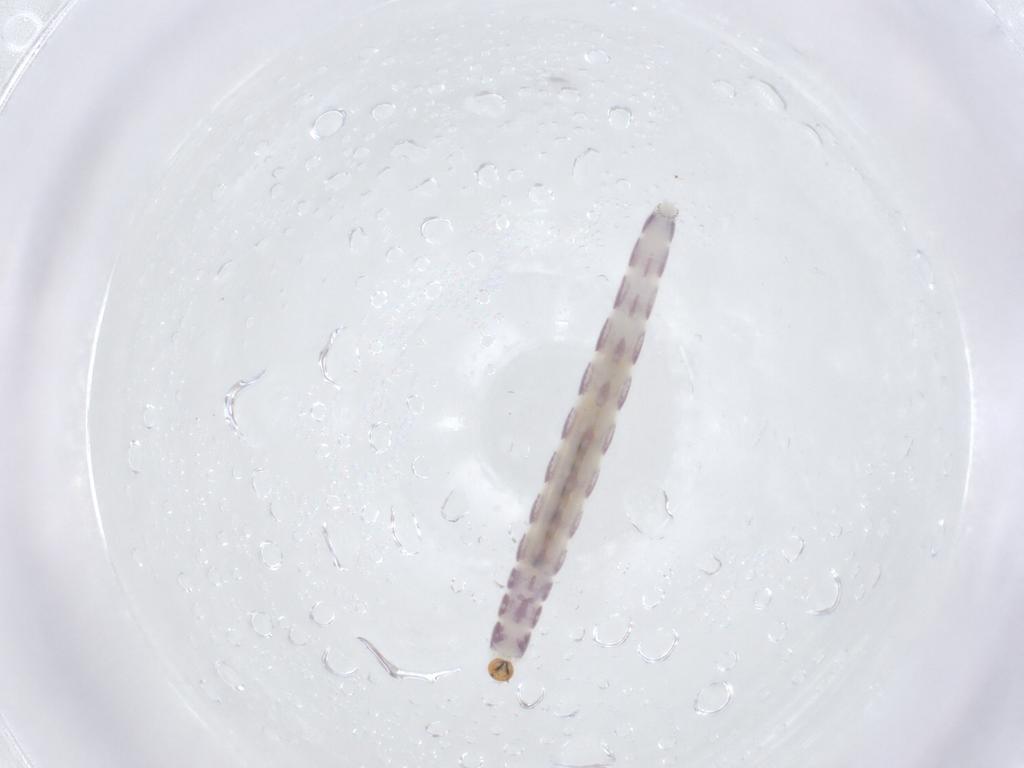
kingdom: Animalia
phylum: Arthropoda
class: Insecta
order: Diptera
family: Chironomidae
